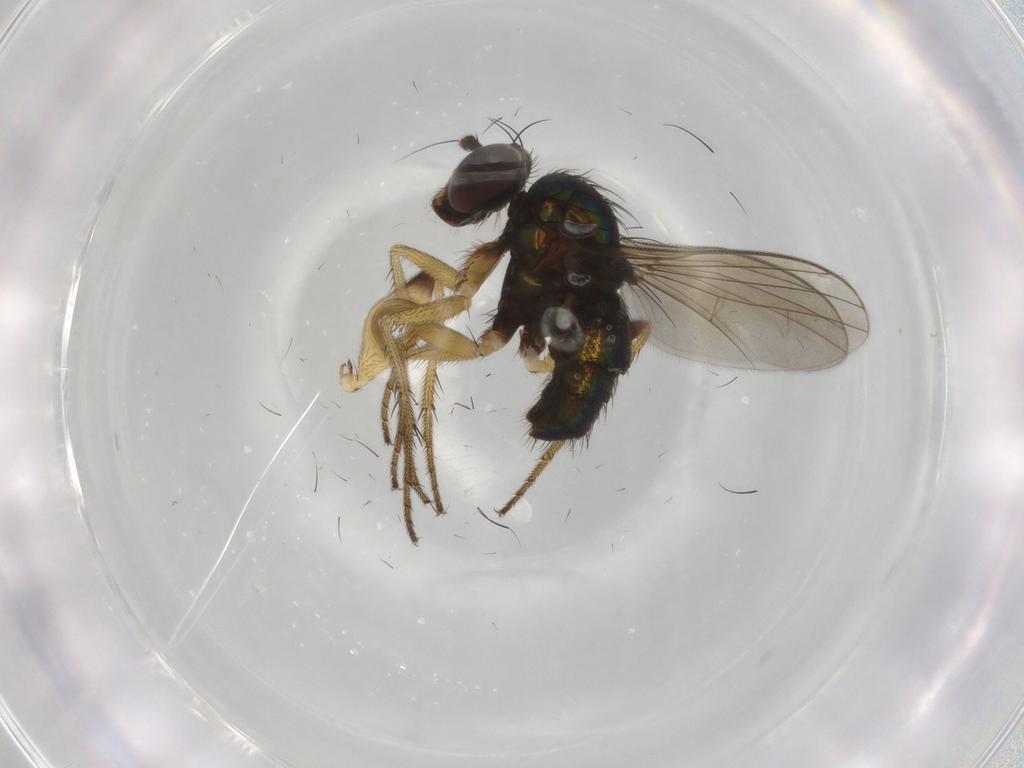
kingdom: Animalia
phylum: Arthropoda
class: Insecta
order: Diptera
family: Dolichopodidae
